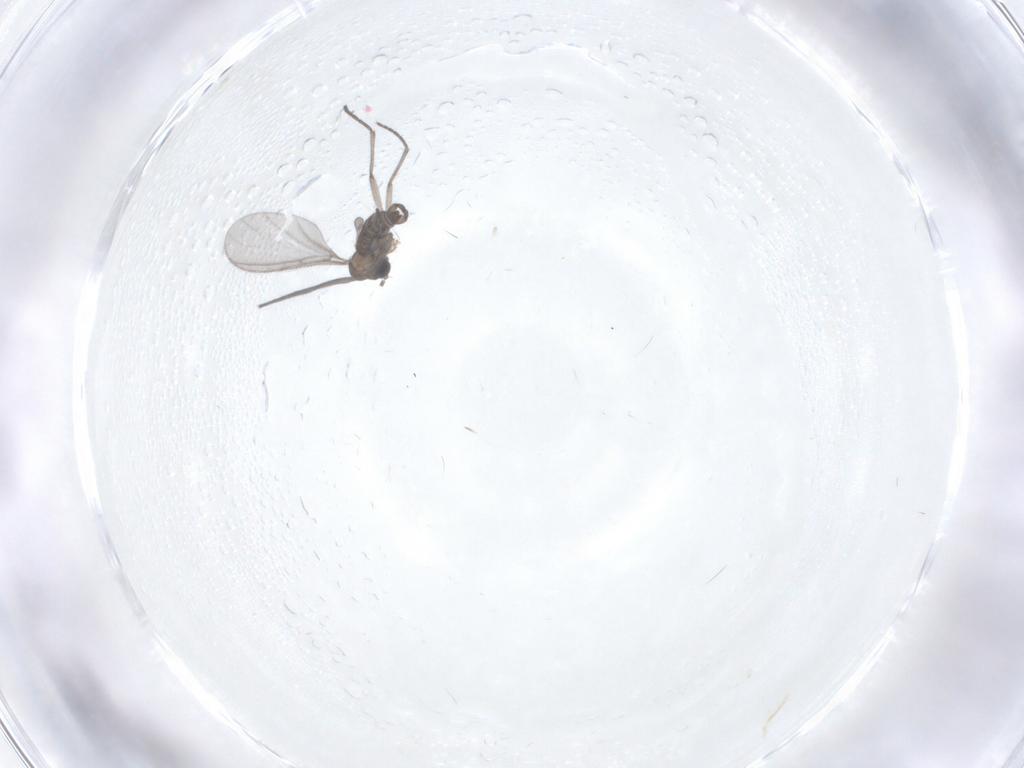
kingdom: Animalia
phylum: Arthropoda
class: Insecta
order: Diptera
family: Sciaridae
